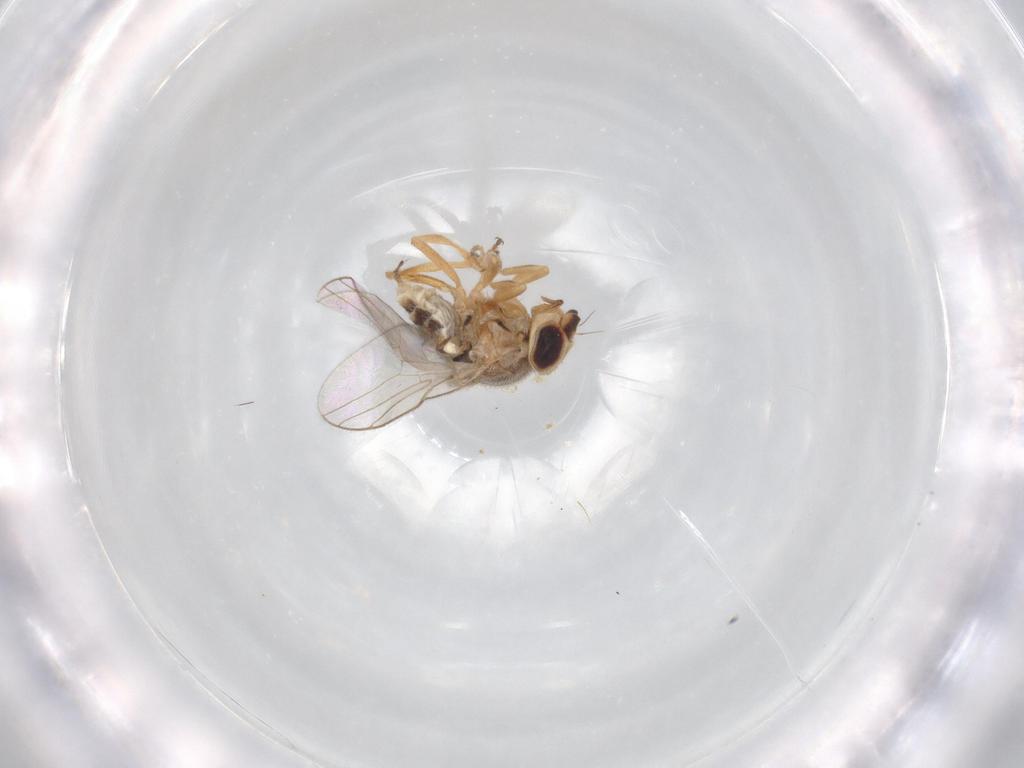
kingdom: Animalia
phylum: Arthropoda
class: Insecta
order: Diptera
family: Chloropidae
